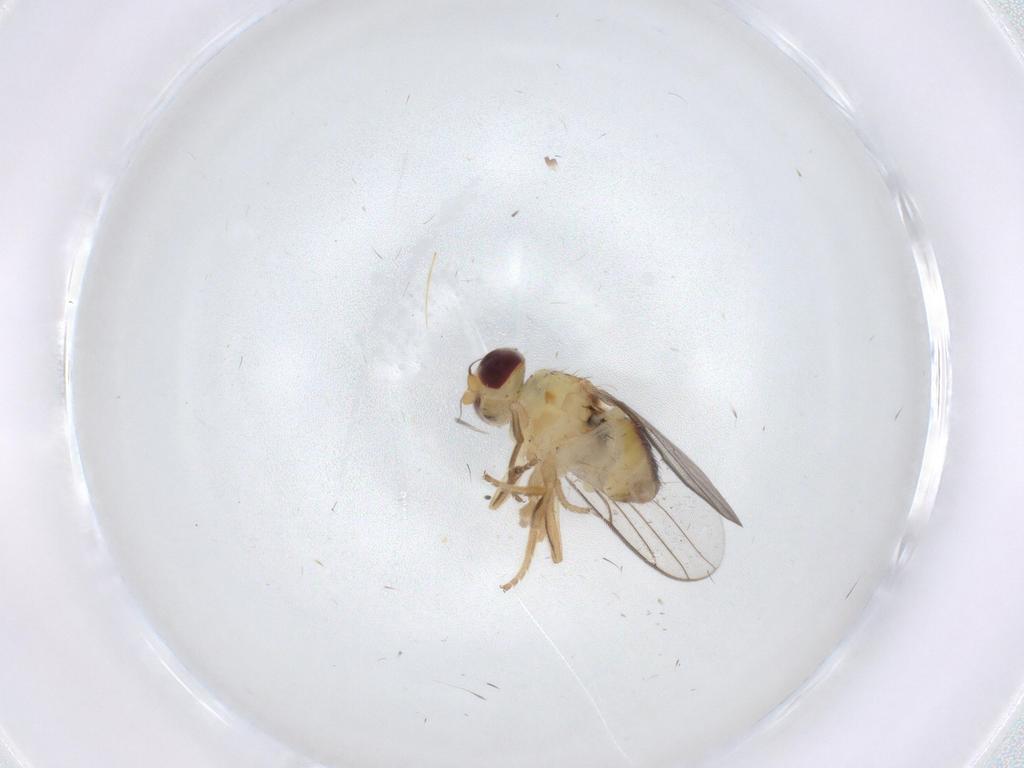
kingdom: Animalia
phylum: Arthropoda
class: Insecta
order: Diptera
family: Chloropidae
